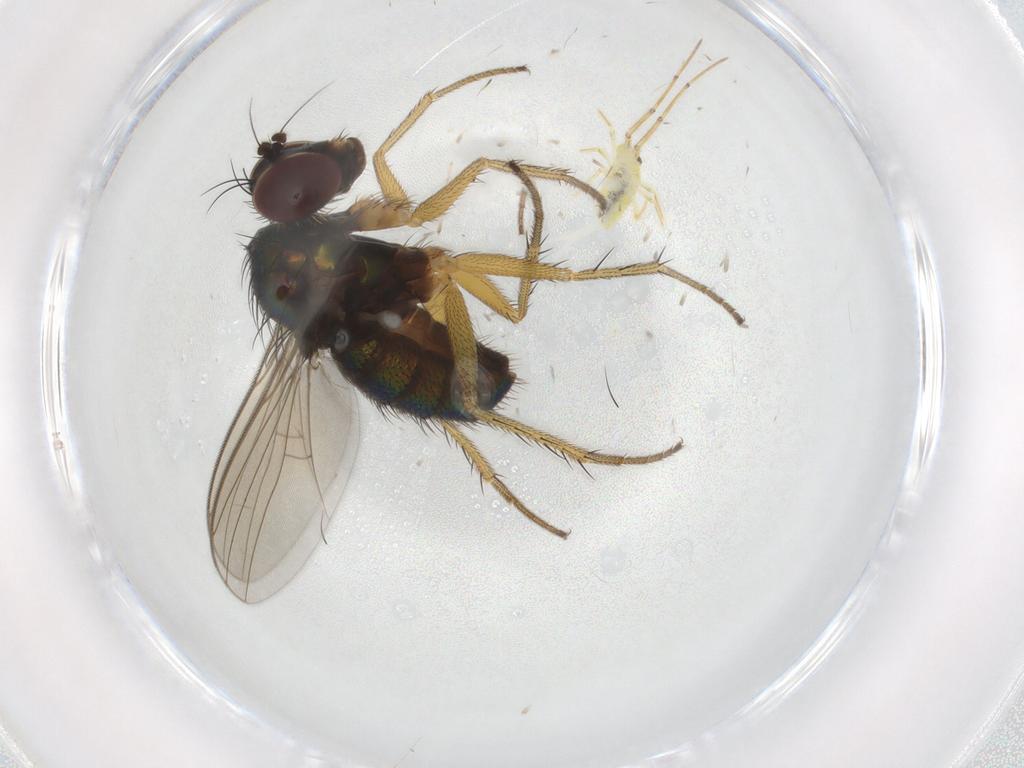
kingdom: Animalia
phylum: Arthropoda
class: Insecta
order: Diptera
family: Dolichopodidae
